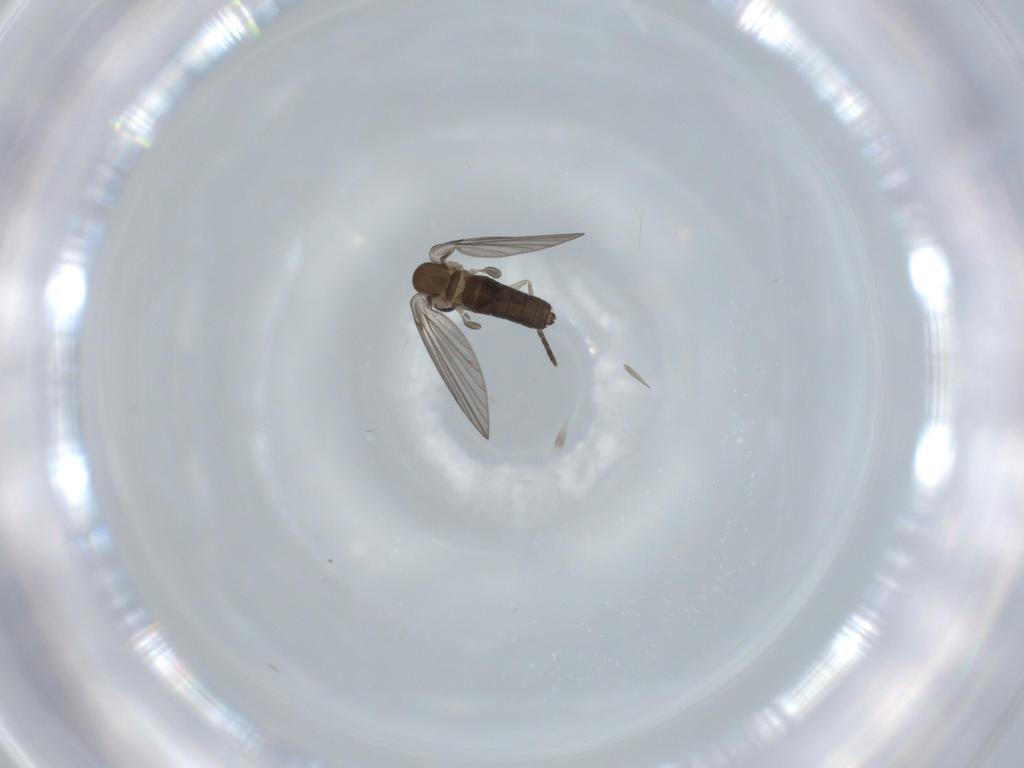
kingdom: Animalia
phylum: Arthropoda
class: Insecta
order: Diptera
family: Psychodidae
